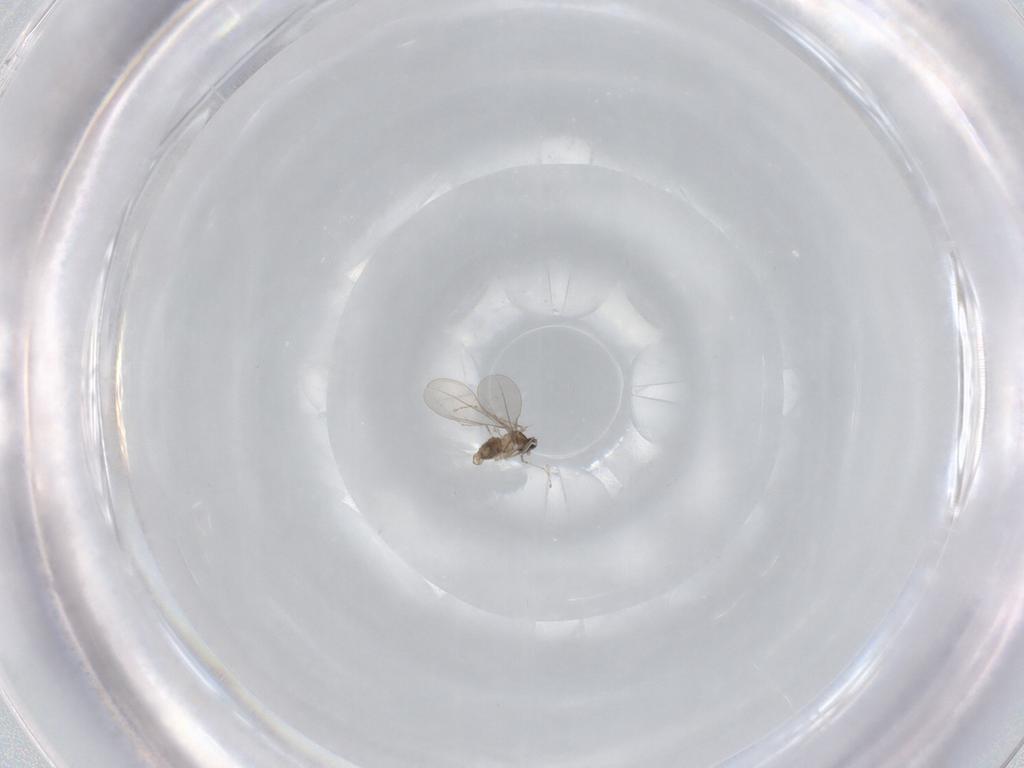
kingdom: Animalia
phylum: Arthropoda
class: Insecta
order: Diptera
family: Cecidomyiidae
